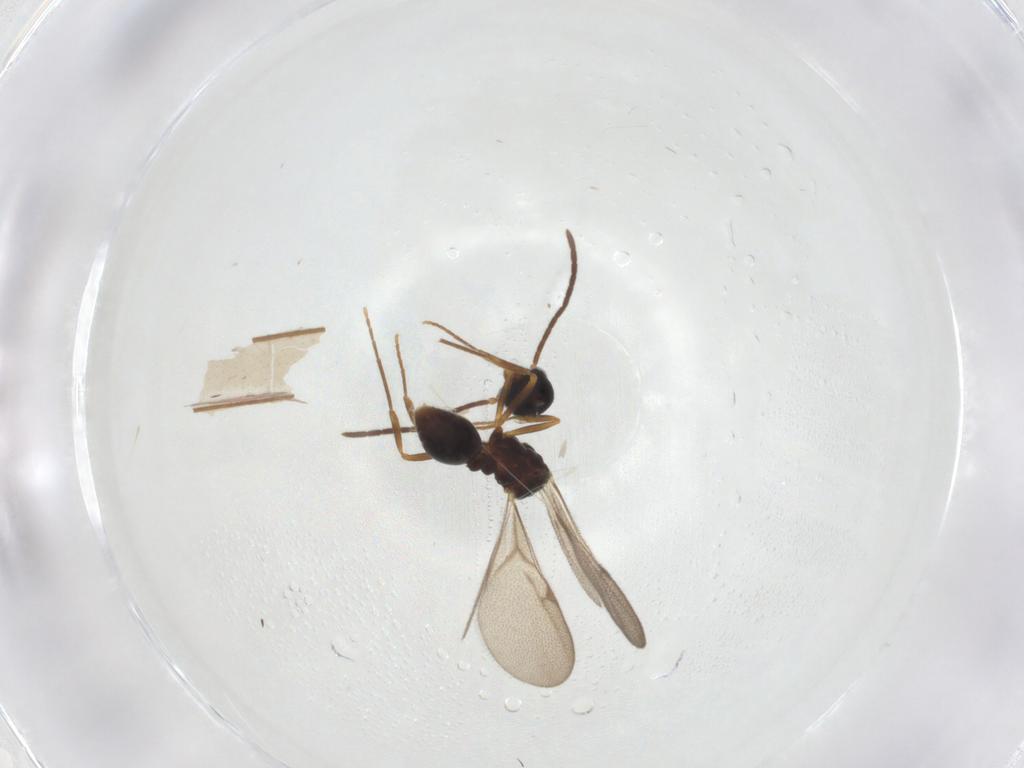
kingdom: Animalia
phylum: Arthropoda
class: Insecta
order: Hymenoptera
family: Formicidae
